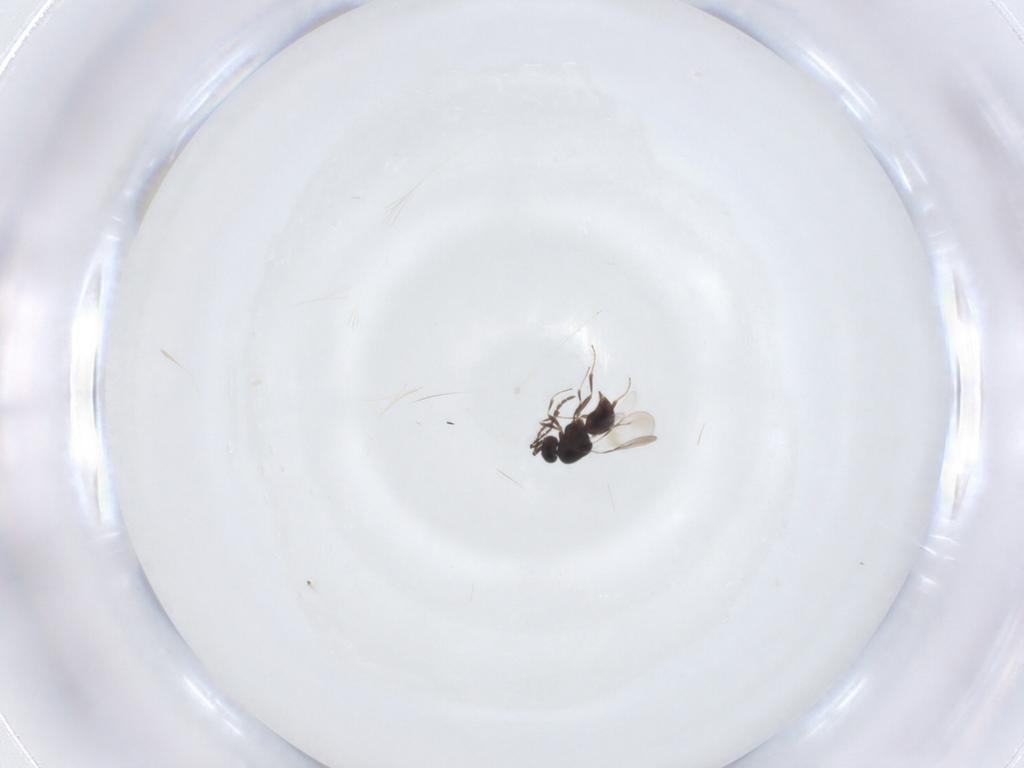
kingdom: Animalia
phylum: Arthropoda
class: Insecta
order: Hymenoptera
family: Ceraphronidae
